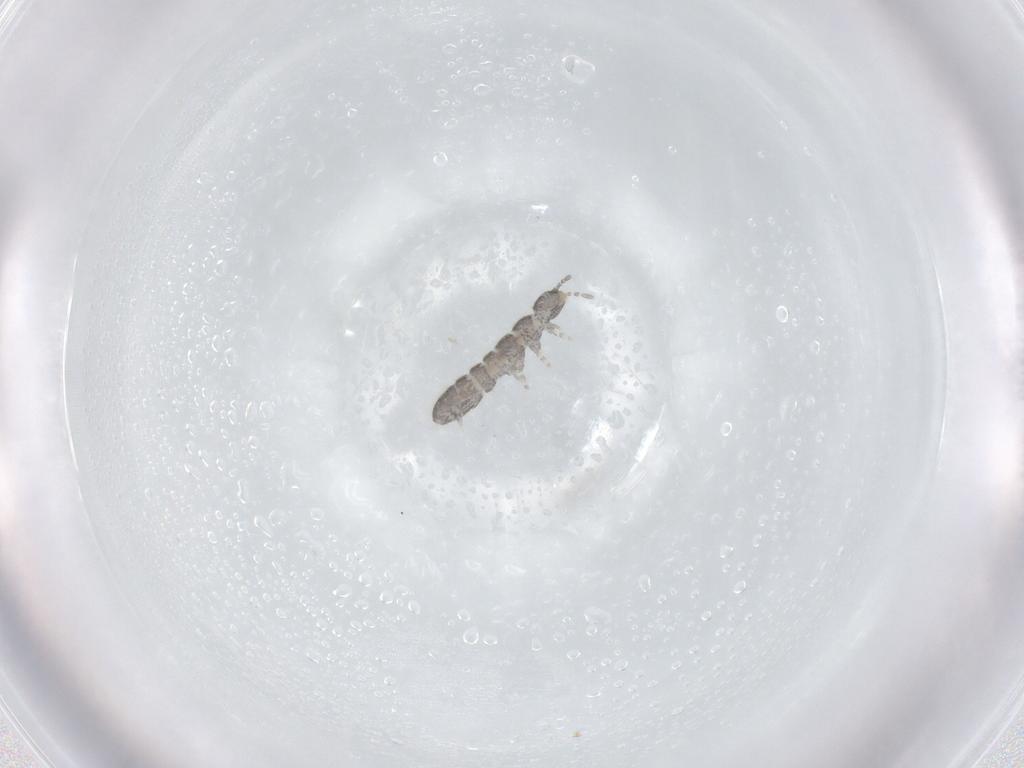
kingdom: Animalia
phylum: Arthropoda
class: Collembola
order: Entomobryomorpha
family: Isotomidae
